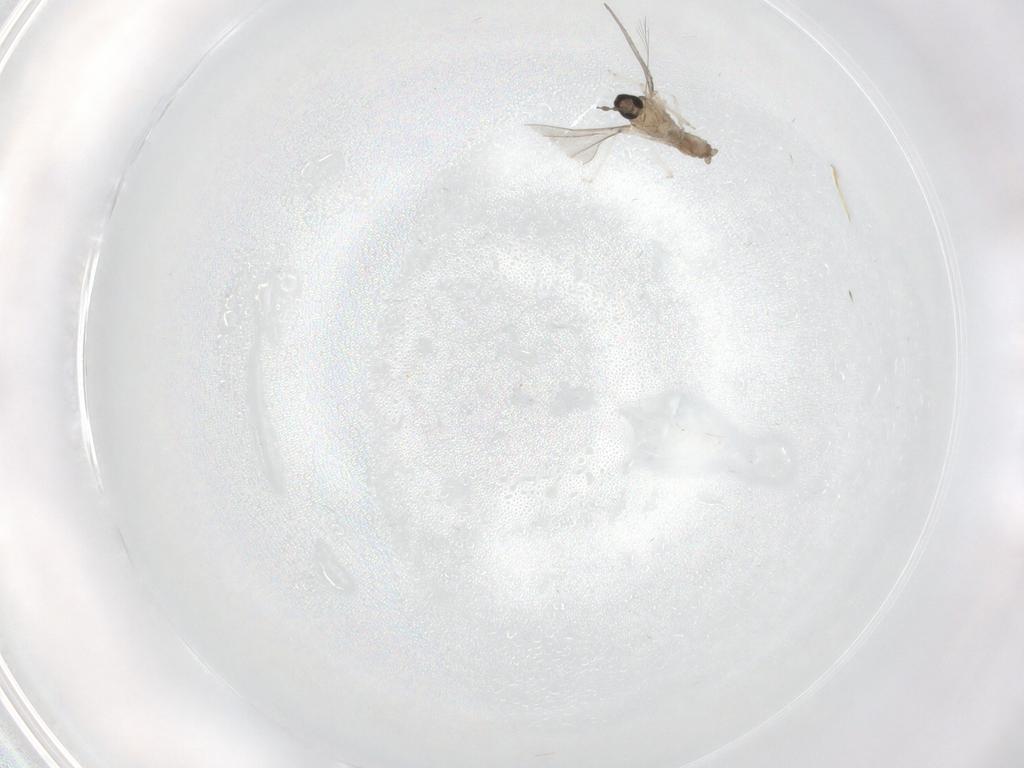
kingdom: Animalia
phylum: Arthropoda
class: Insecta
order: Diptera
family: Cecidomyiidae
